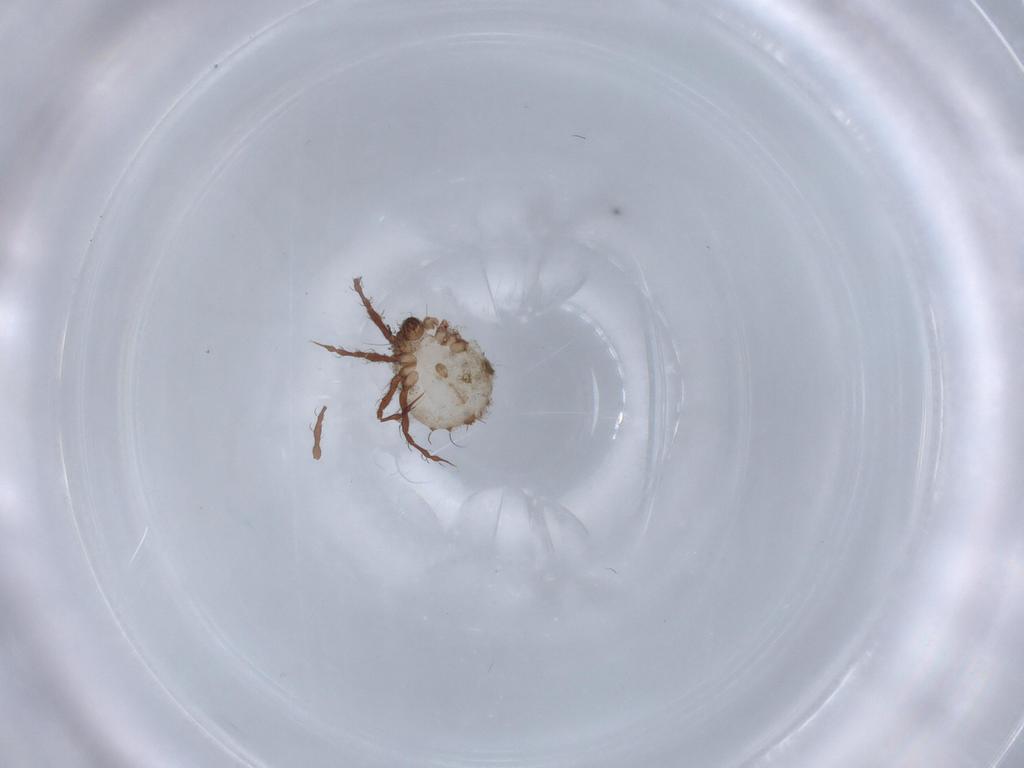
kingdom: Animalia
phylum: Arthropoda
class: Arachnida
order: Sarcoptiformes
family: Damaeidae
